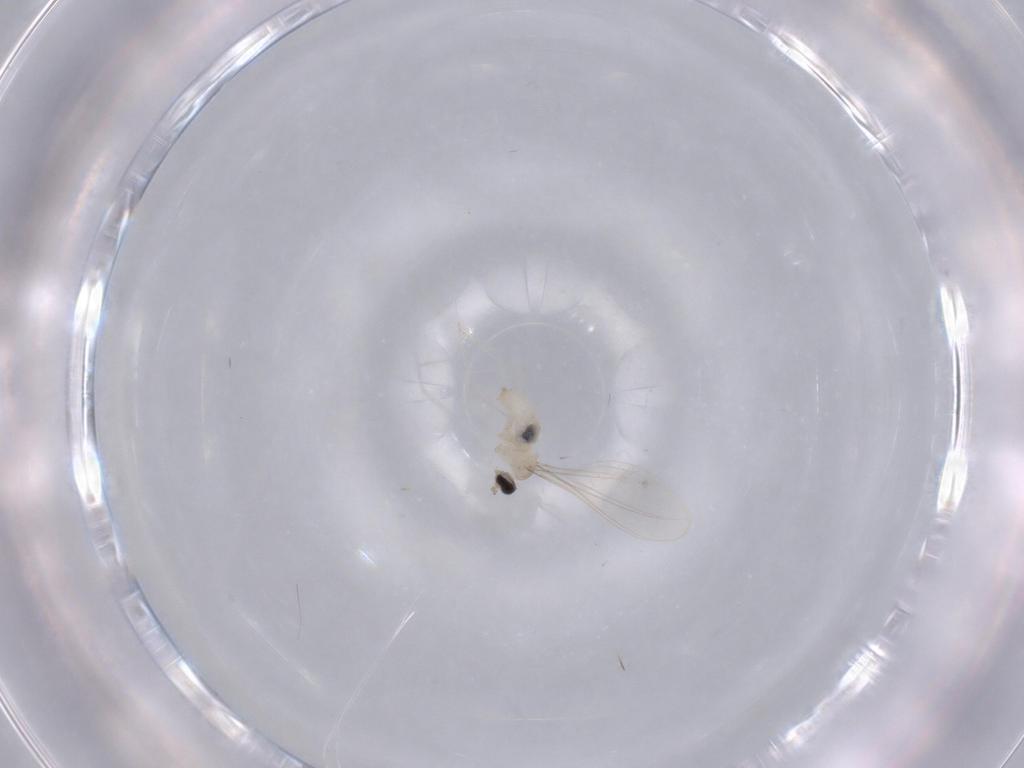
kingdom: Animalia
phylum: Arthropoda
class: Insecta
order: Diptera
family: Cecidomyiidae
